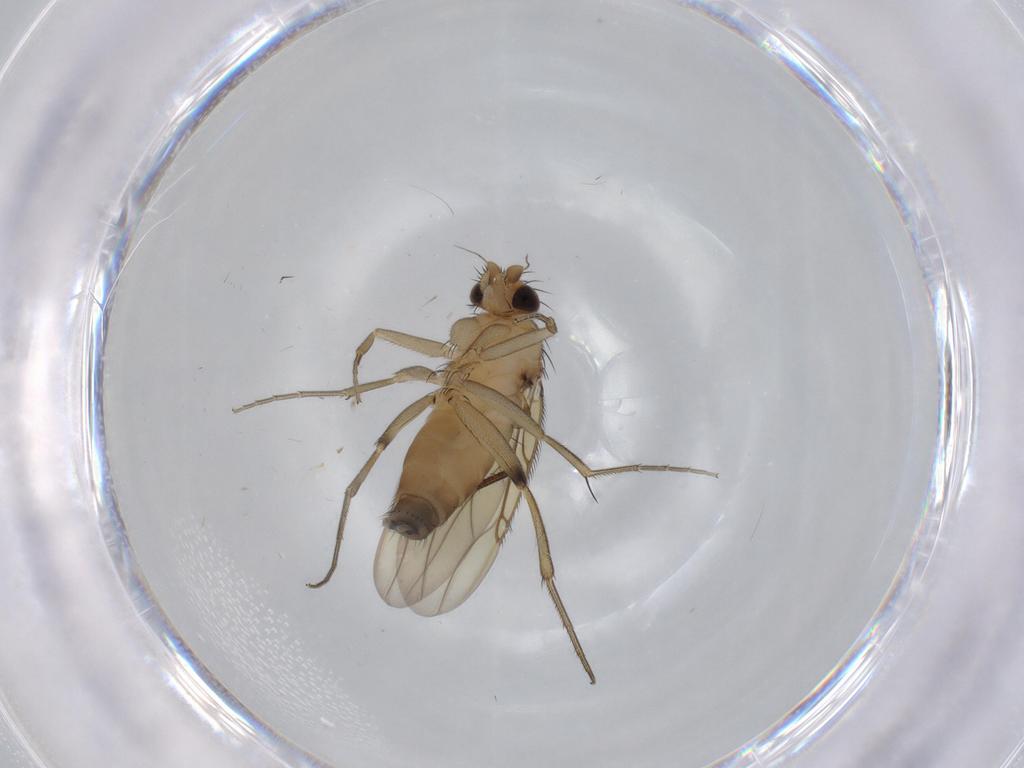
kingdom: Animalia
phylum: Arthropoda
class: Insecta
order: Diptera
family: Phoridae
